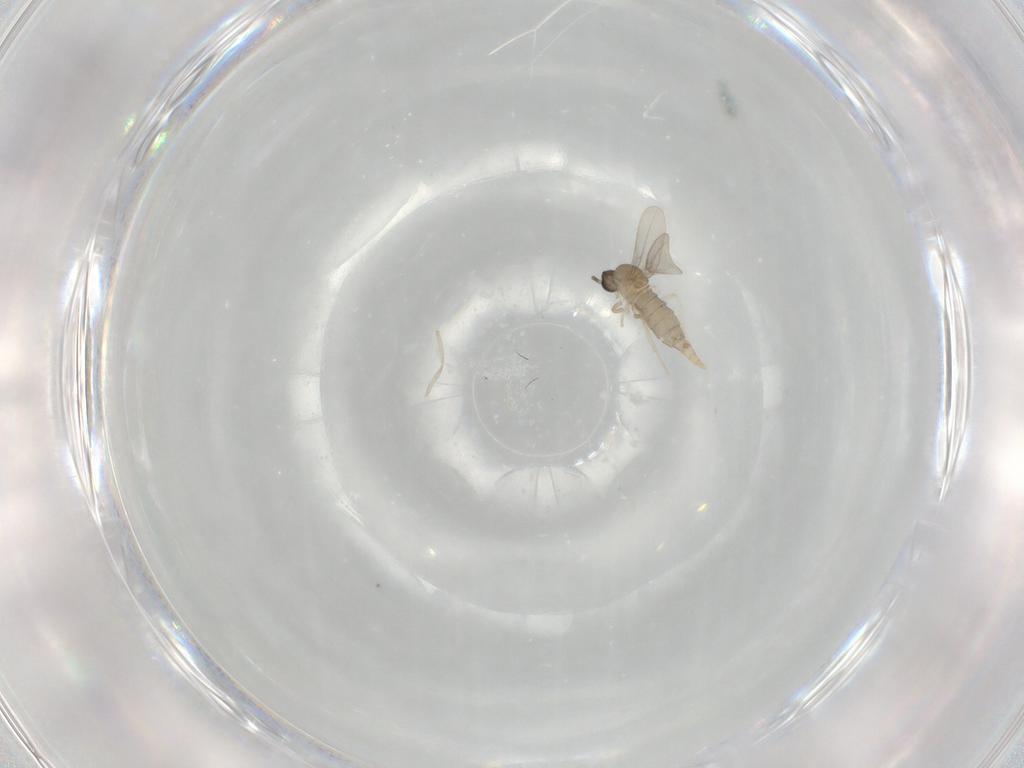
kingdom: Animalia
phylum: Arthropoda
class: Insecta
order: Diptera
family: Cecidomyiidae
